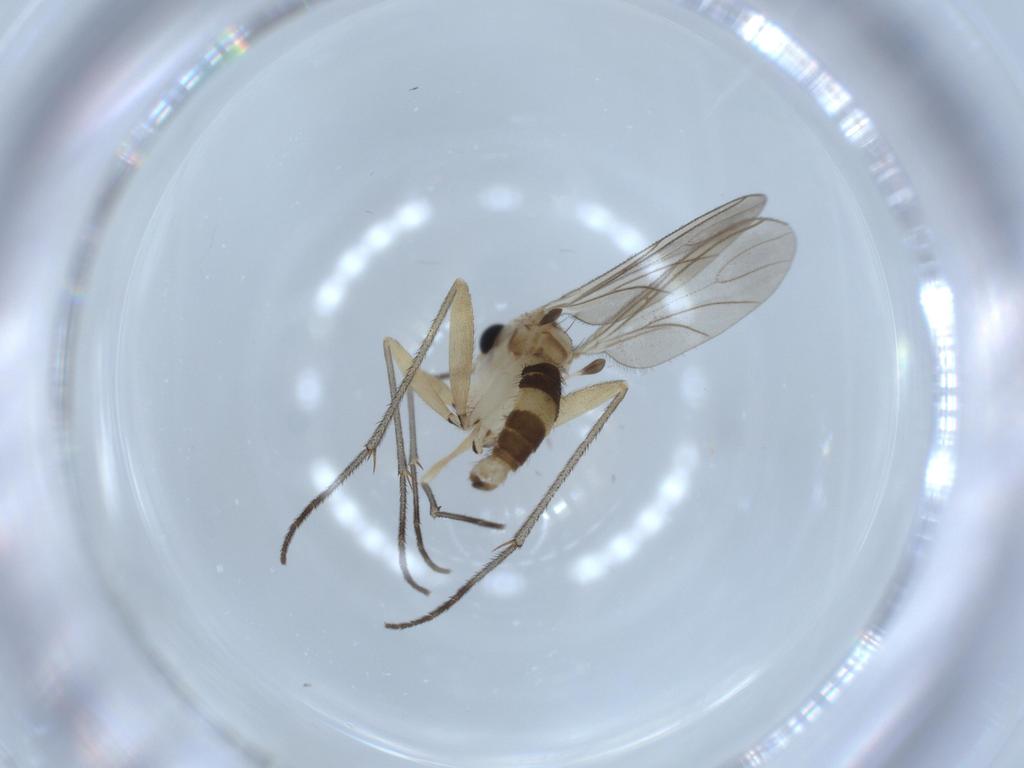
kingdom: Animalia
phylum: Arthropoda
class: Insecta
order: Diptera
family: Sciaridae
